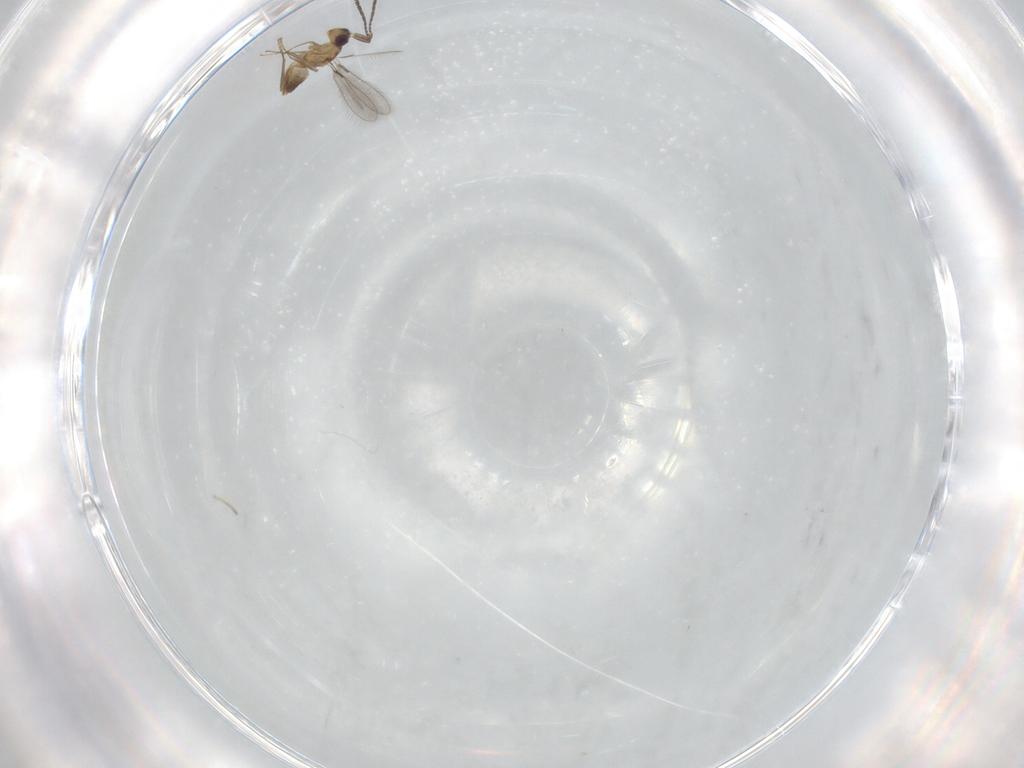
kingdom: Animalia
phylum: Arthropoda
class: Insecta
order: Hymenoptera
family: Mymaridae
